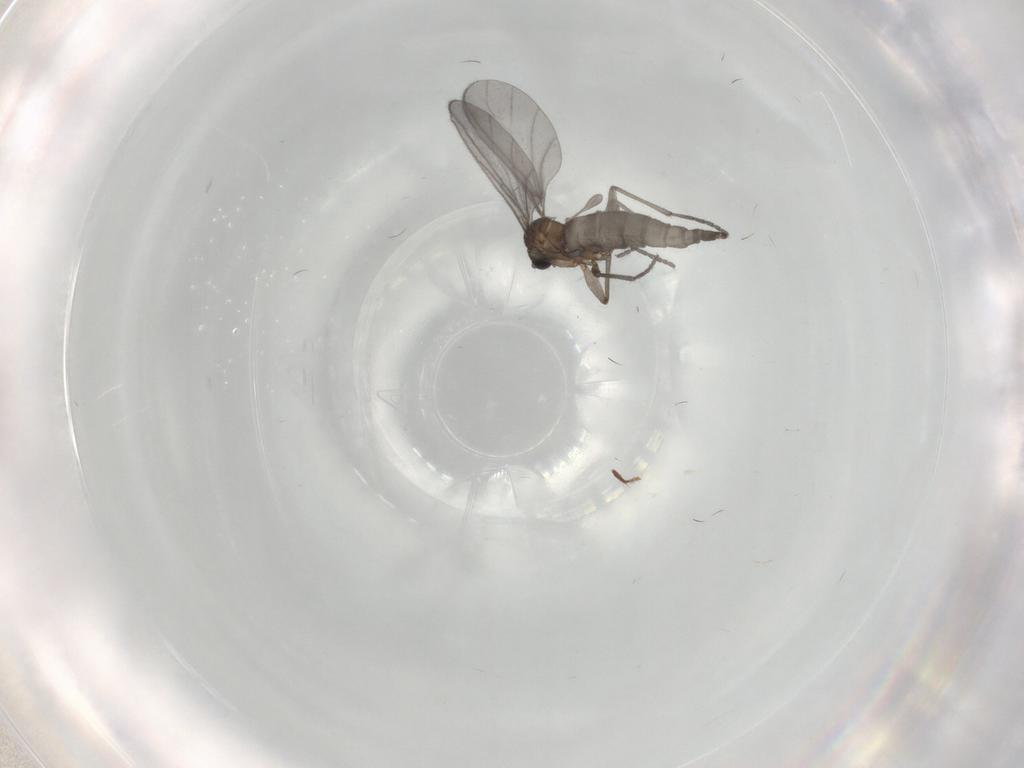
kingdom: Animalia
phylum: Arthropoda
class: Insecta
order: Diptera
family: Sciaridae
